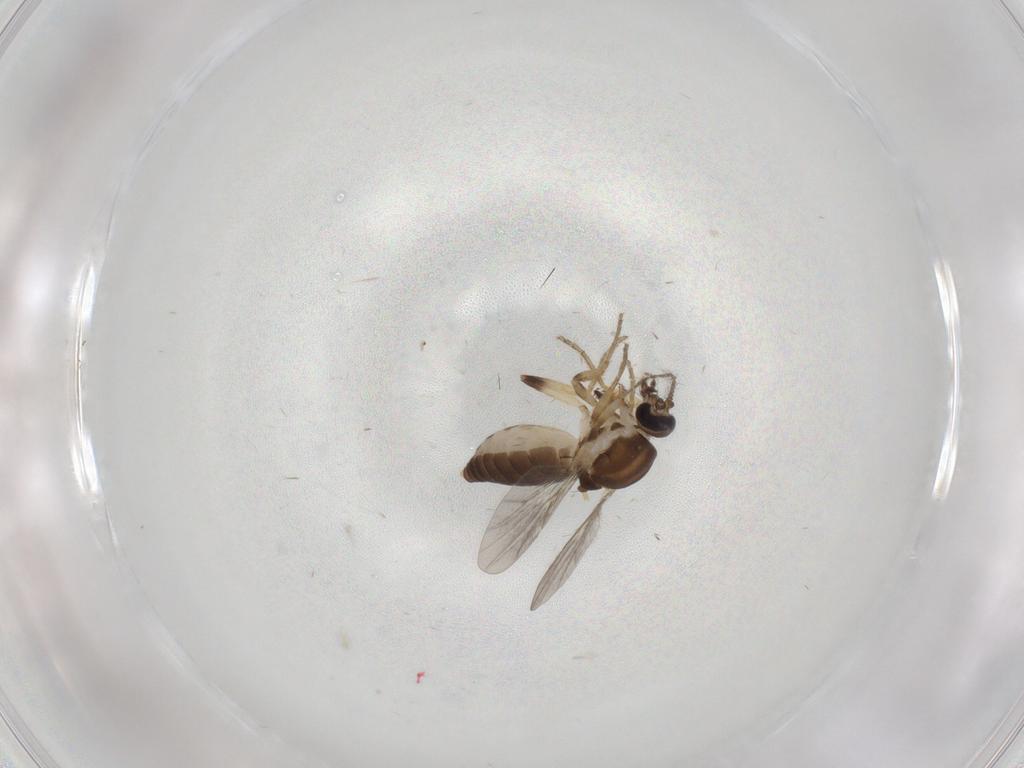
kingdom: Animalia
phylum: Arthropoda
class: Insecta
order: Diptera
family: Ceratopogonidae
